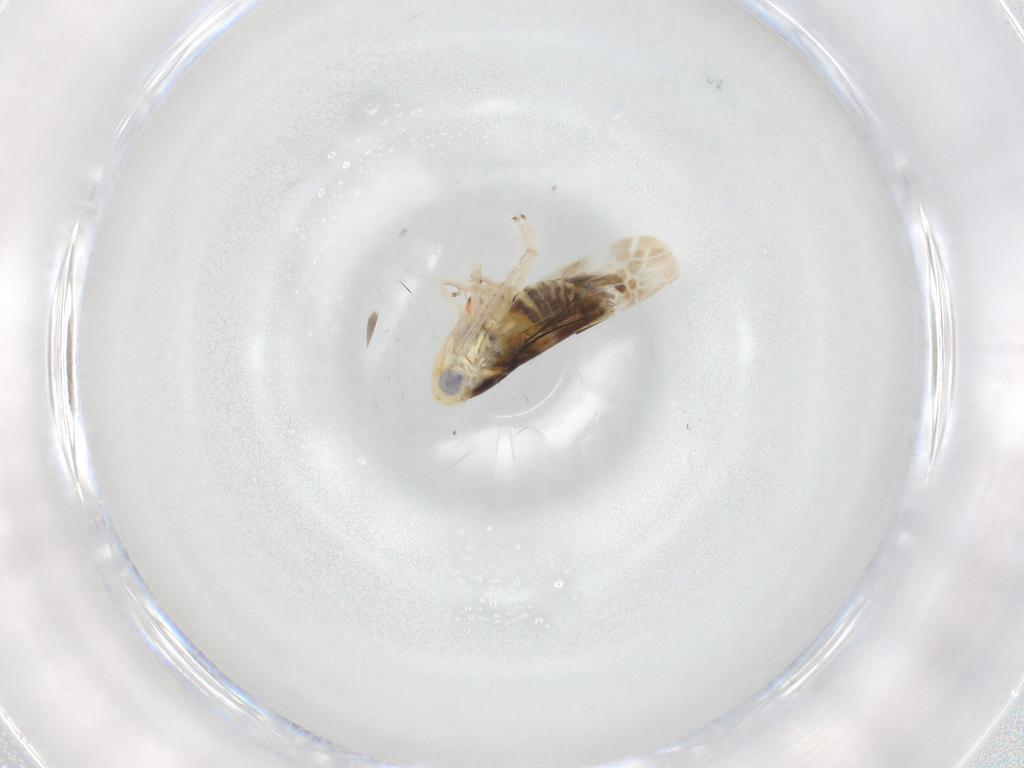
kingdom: Animalia
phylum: Arthropoda
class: Insecta
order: Hemiptera
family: Cicadellidae
